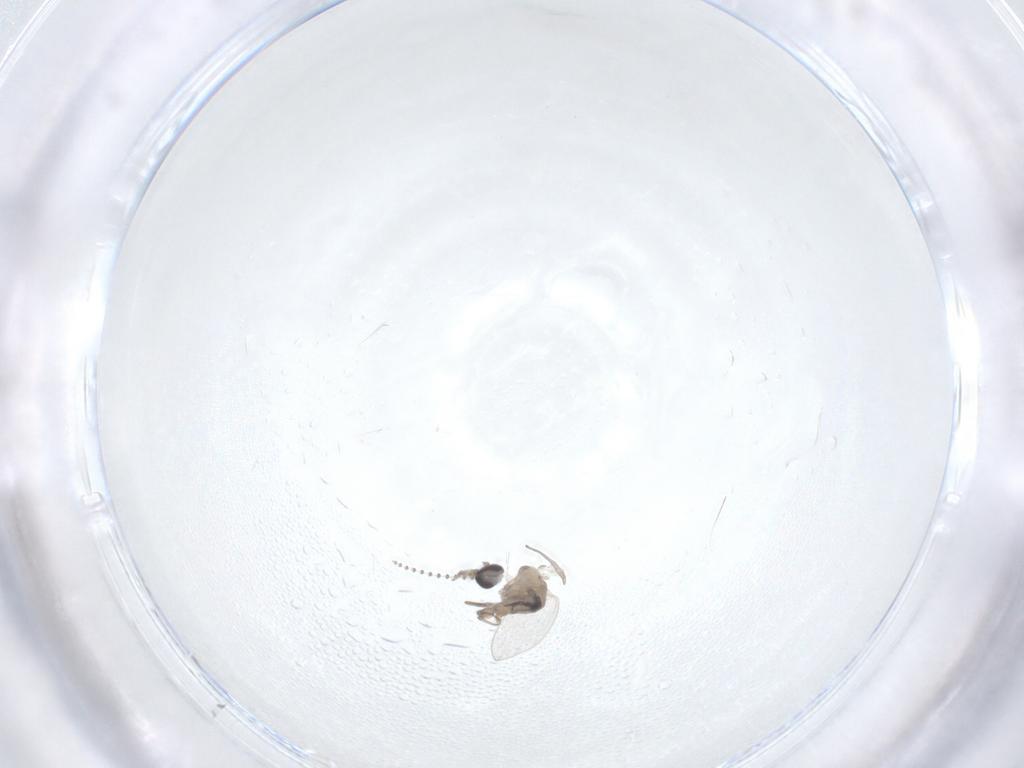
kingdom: Animalia
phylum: Arthropoda
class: Insecta
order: Diptera
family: Psychodidae
